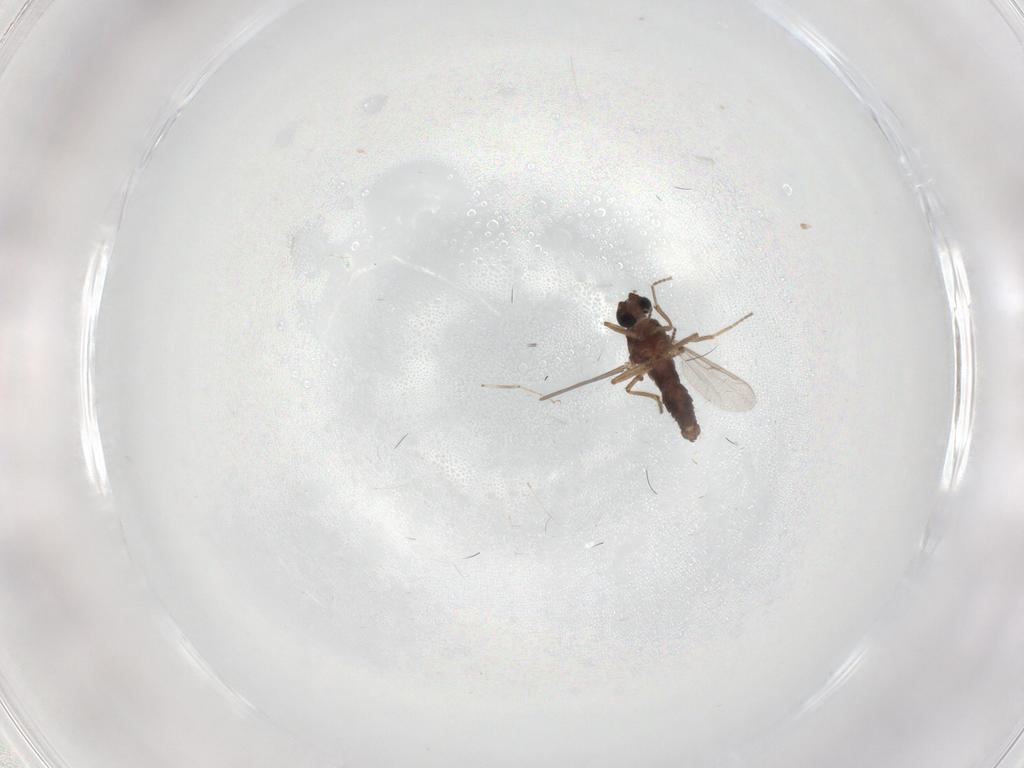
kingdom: Animalia
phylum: Arthropoda
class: Insecta
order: Diptera
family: Ceratopogonidae
